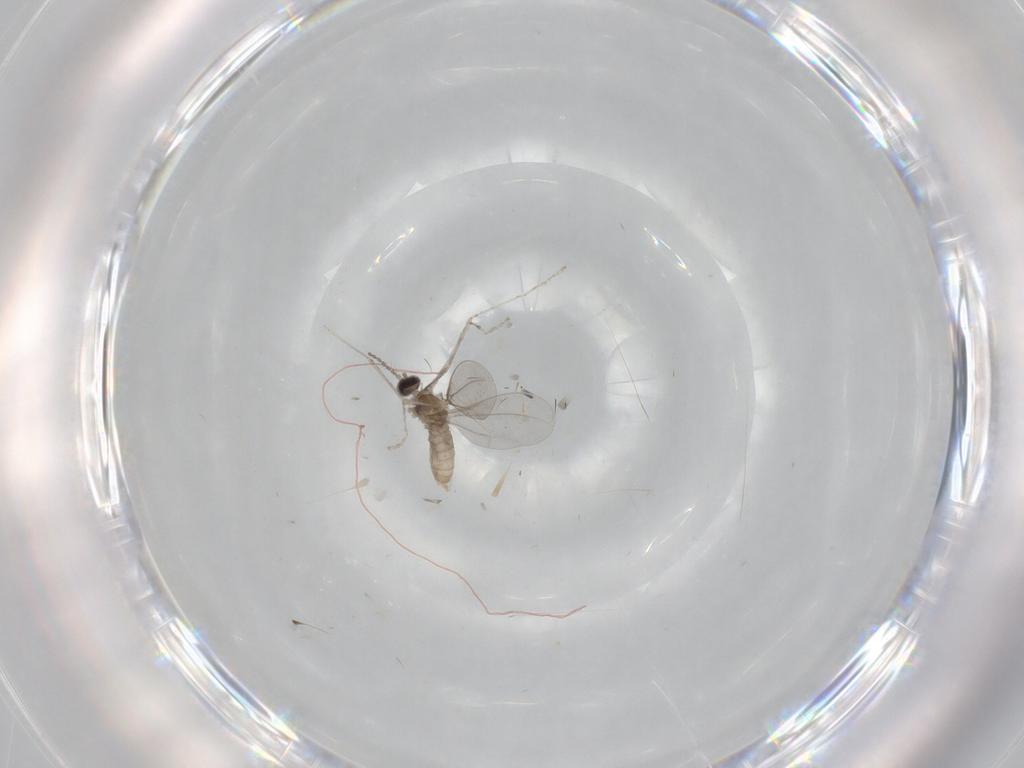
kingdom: Animalia
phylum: Arthropoda
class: Insecta
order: Diptera
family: Cecidomyiidae
